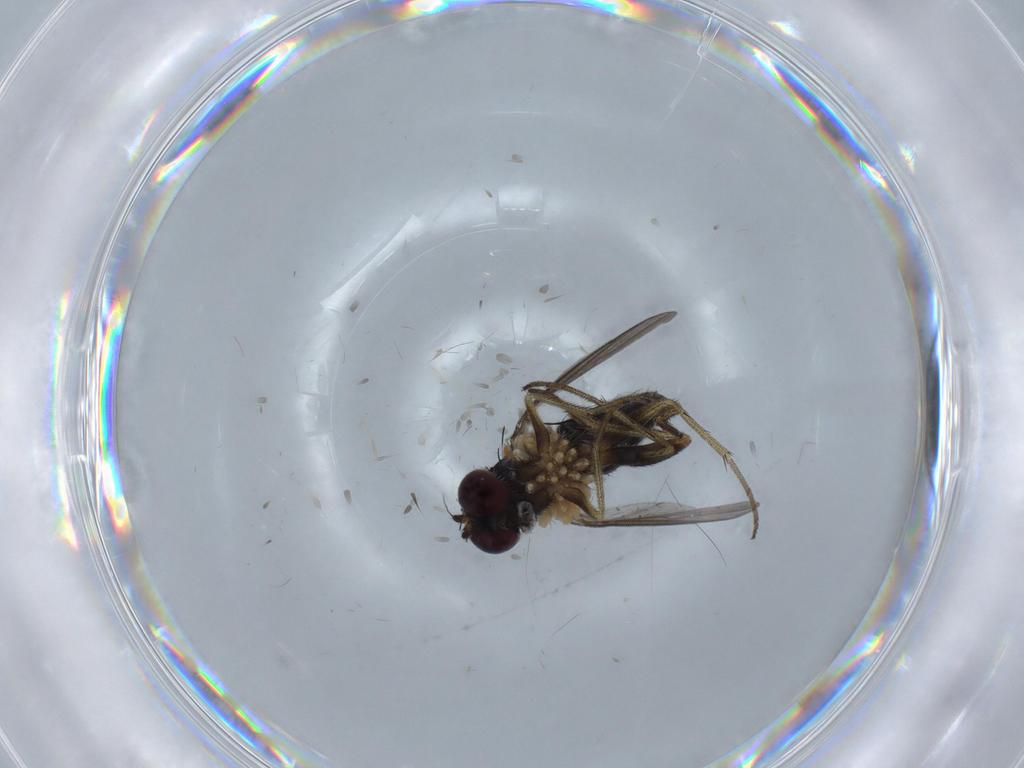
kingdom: Animalia
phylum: Arthropoda
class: Insecta
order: Diptera
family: Chironomidae
